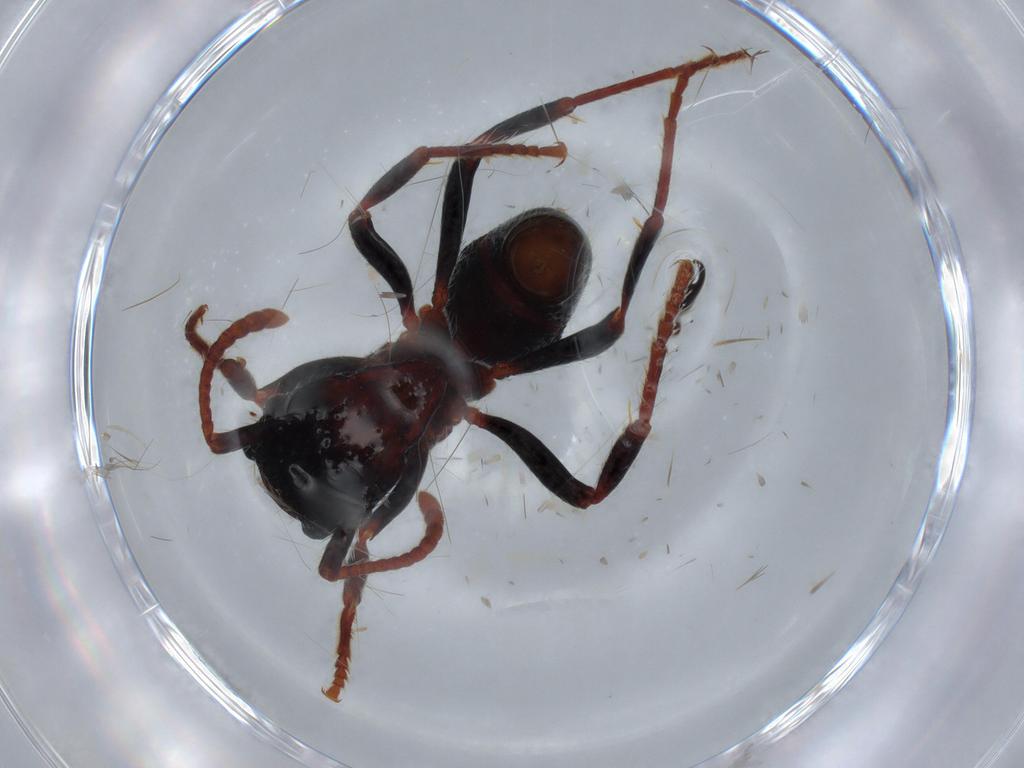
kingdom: Animalia
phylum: Arthropoda
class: Insecta
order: Hymenoptera
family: Formicidae
